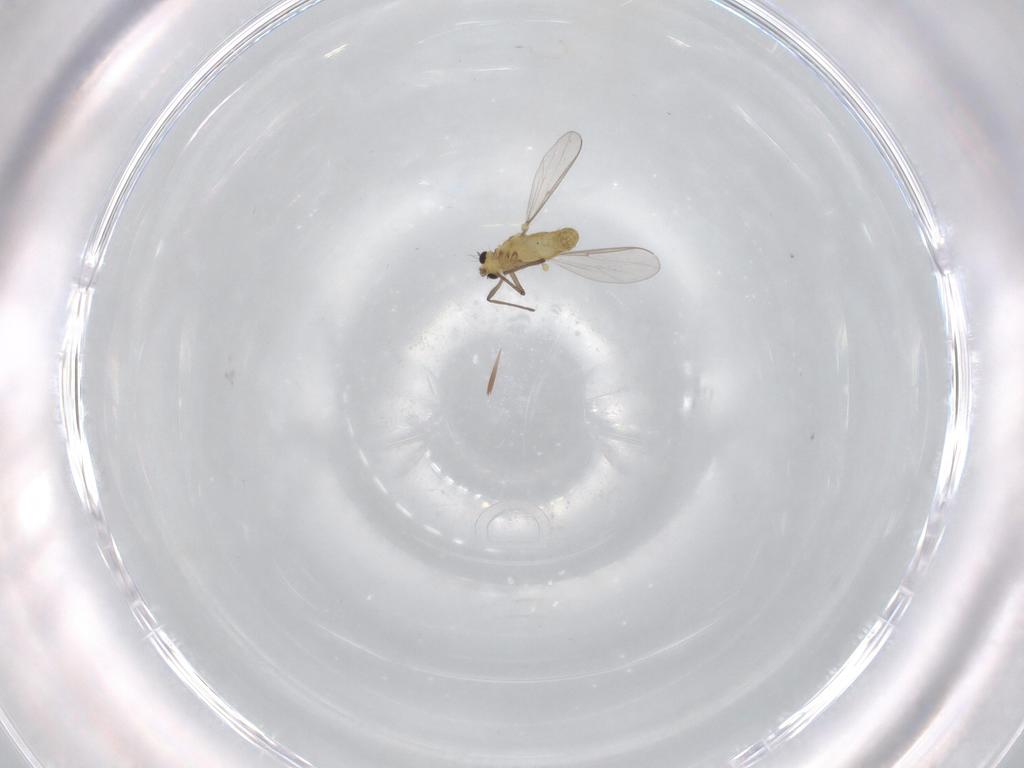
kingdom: Animalia
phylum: Arthropoda
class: Insecta
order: Diptera
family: Chironomidae
